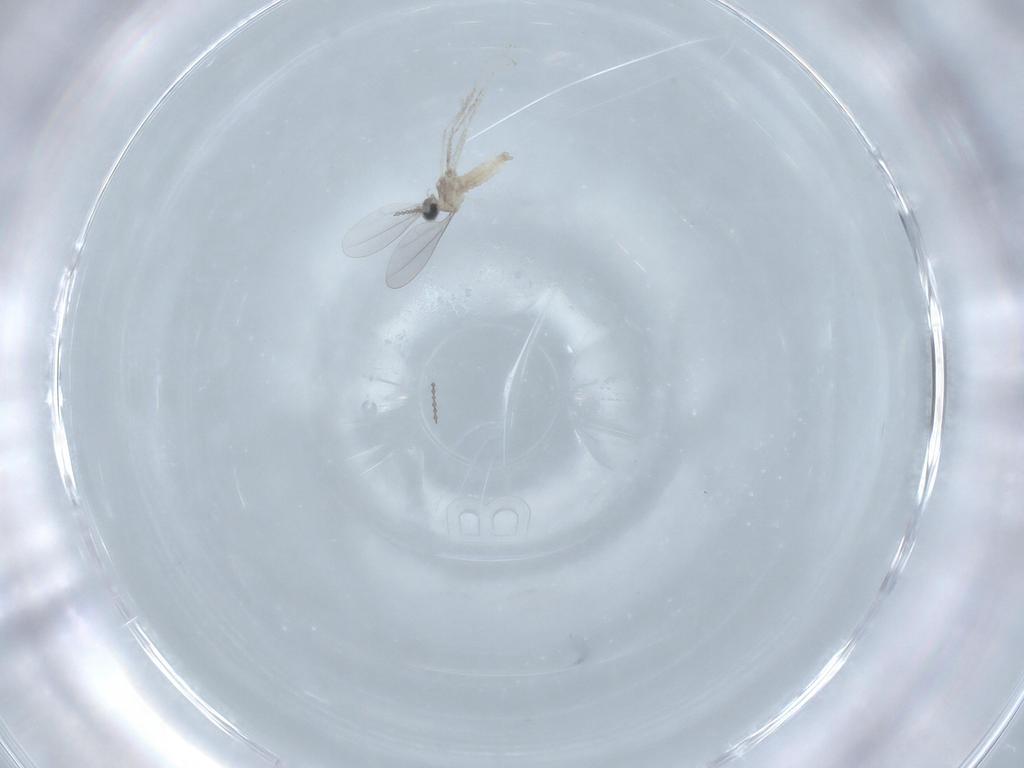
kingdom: Animalia
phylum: Arthropoda
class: Insecta
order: Diptera
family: Cecidomyiidae
